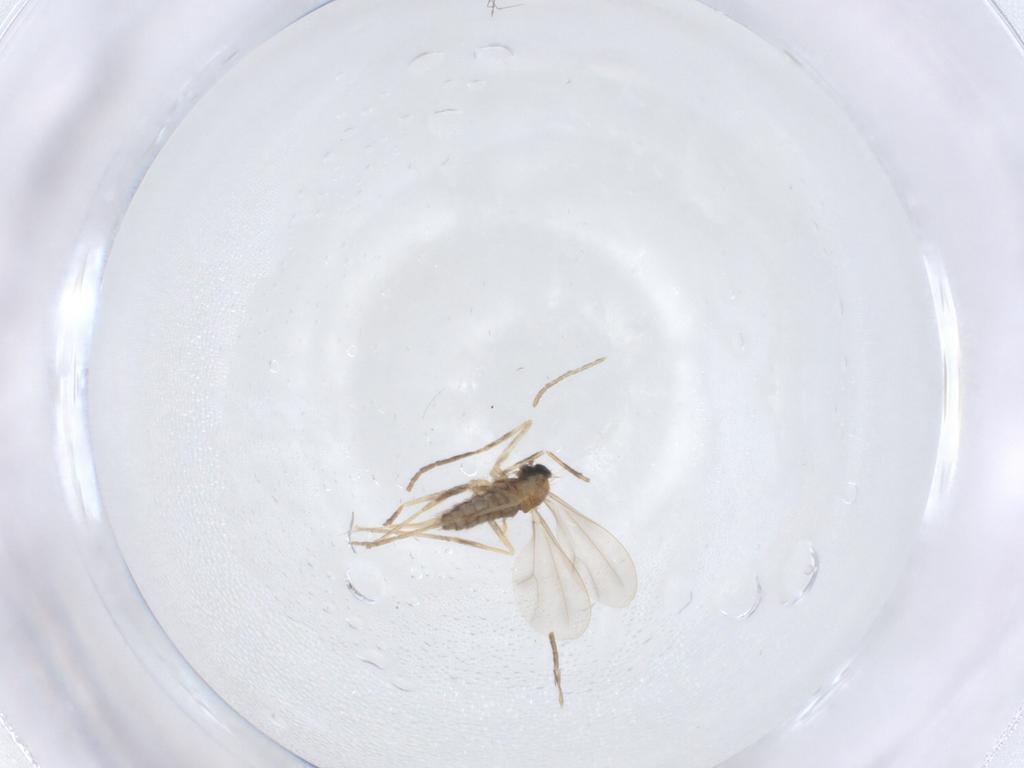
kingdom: Animalia
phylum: Arthropoda
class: Insecta
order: Diptera
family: Cecidomyiidae
